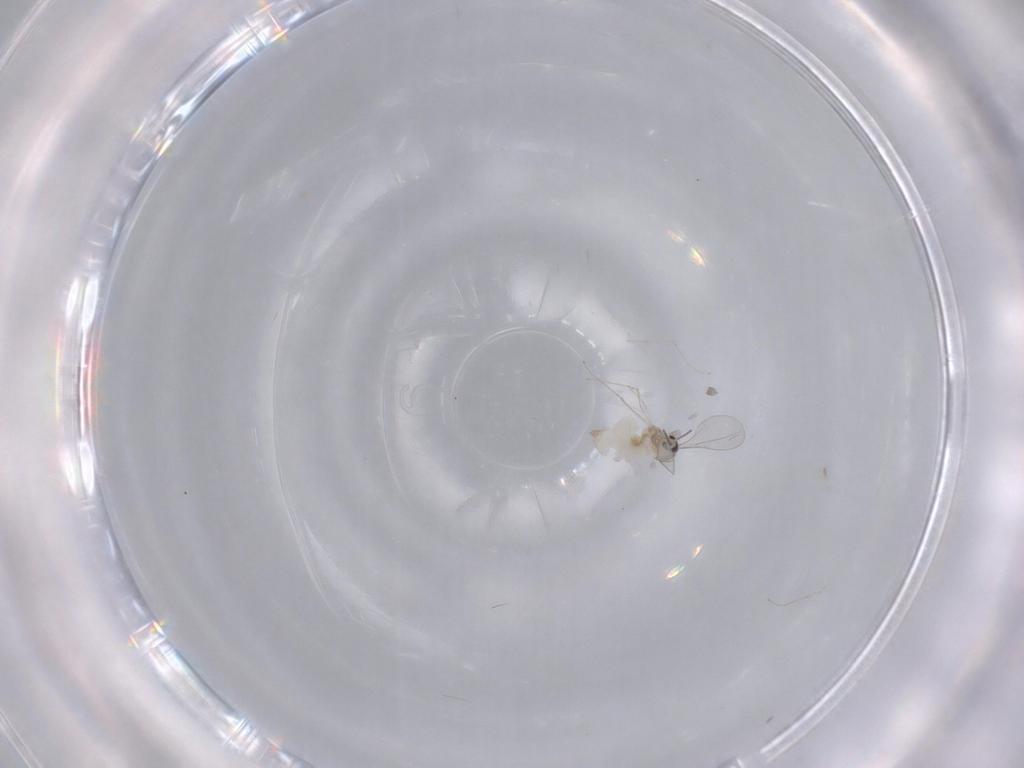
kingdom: Animalia
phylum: Arthropoda
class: Insecta
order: Diptera
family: Cecidomyiidae
